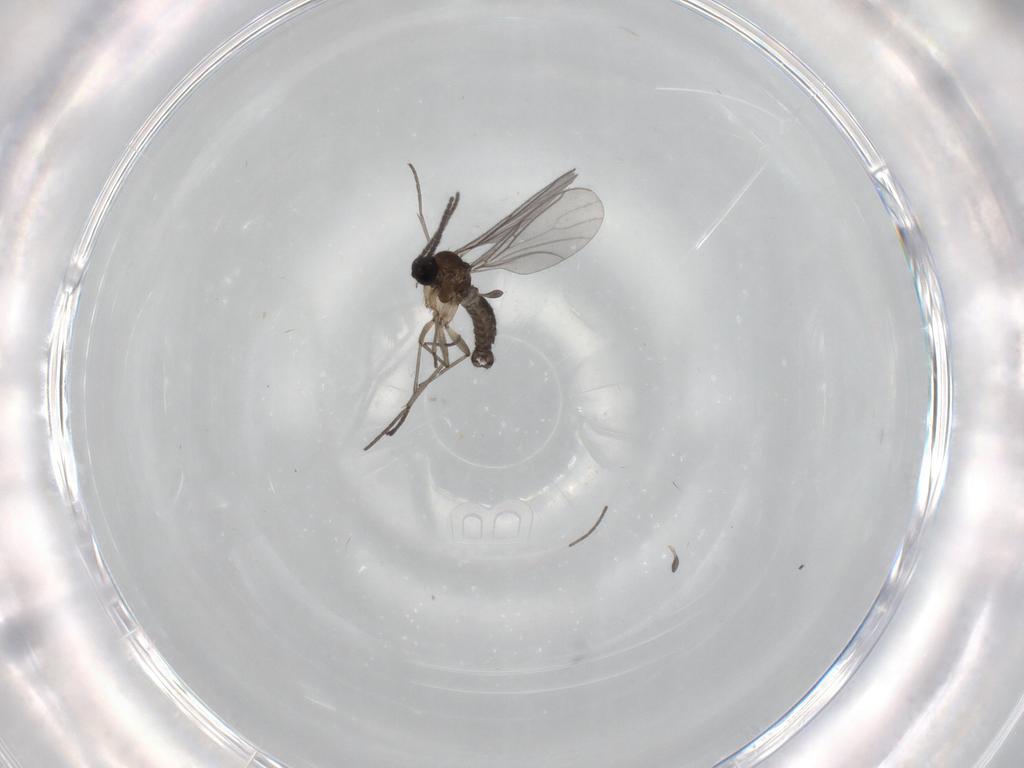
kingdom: Animalia
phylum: Arthropoda
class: Insecta
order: Diptera
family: Sciaridae
